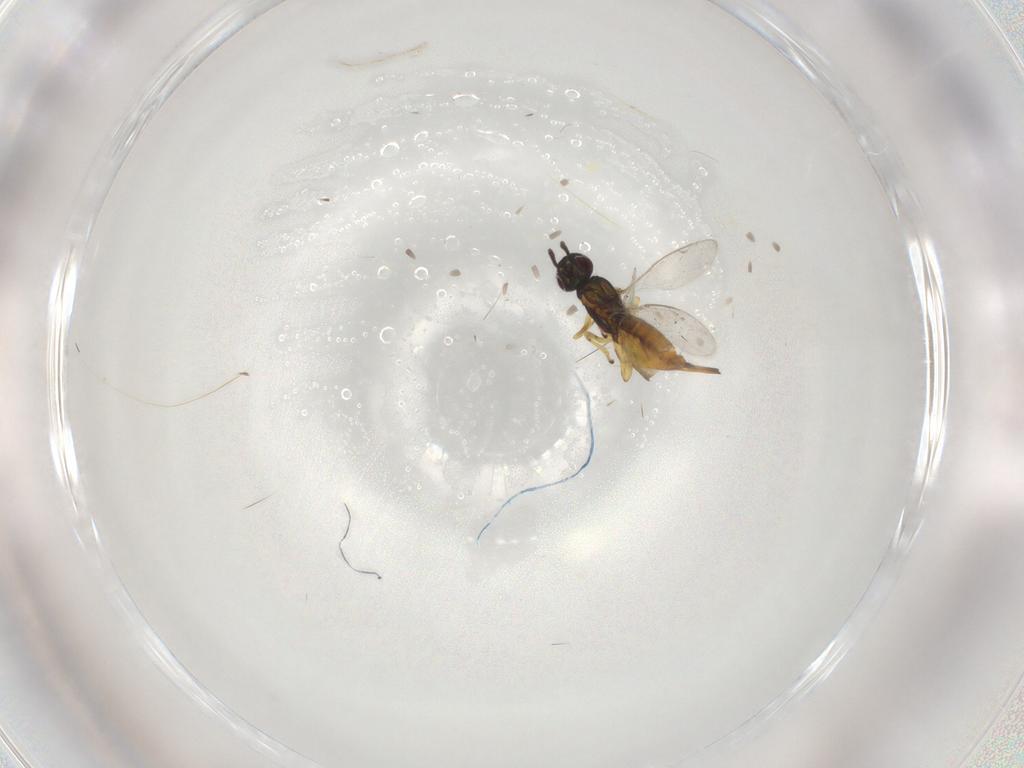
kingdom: Animalia
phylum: Arthropoda
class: Insecta
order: Hymenoptera
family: Eupelmidae
